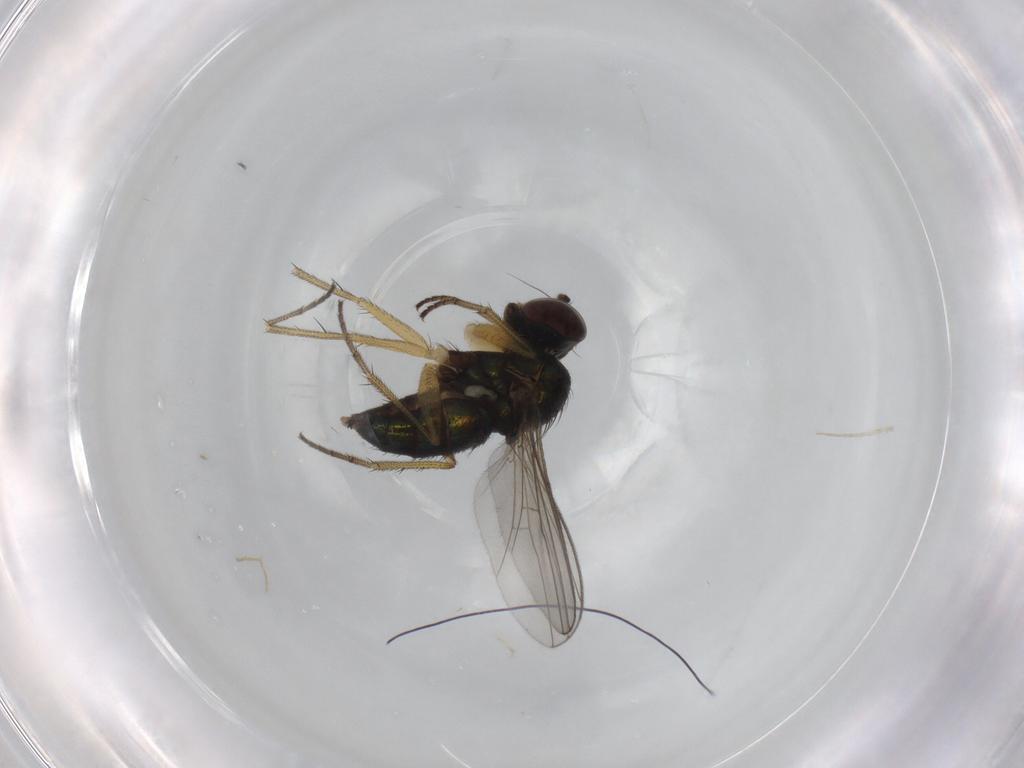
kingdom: Animalia
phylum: Arthropoda
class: Insecta
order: Diptera
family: Dolichopodidae
